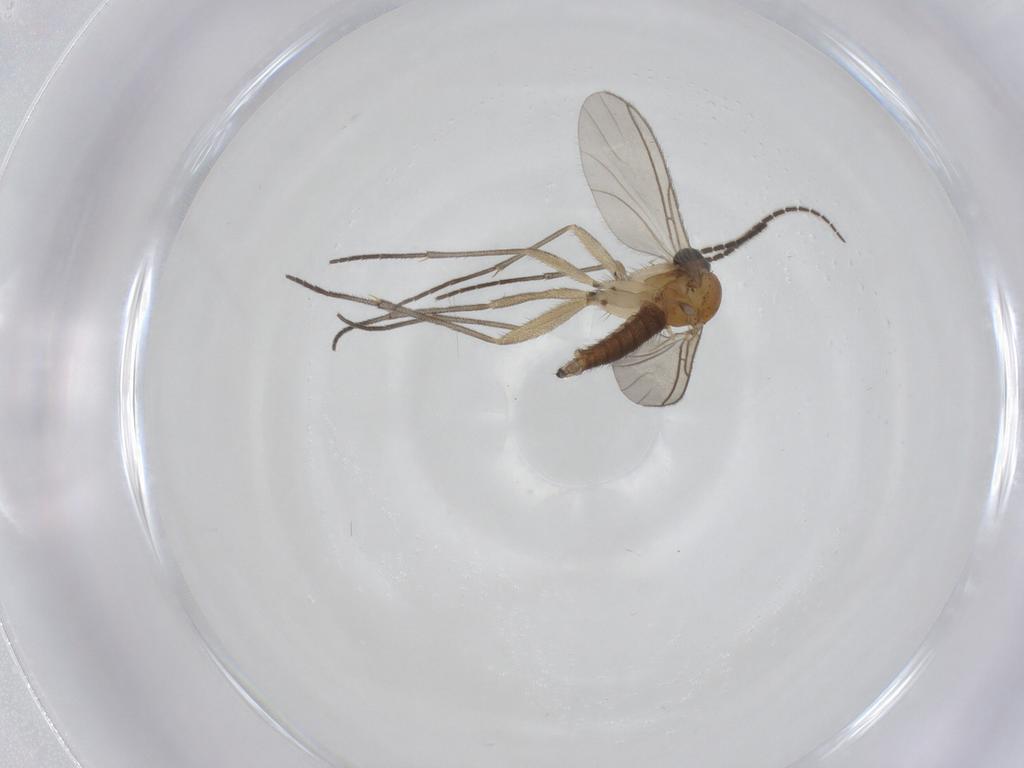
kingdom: Animalia
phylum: Arthropoda
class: Insecta
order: Diptera
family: Sciaridae
